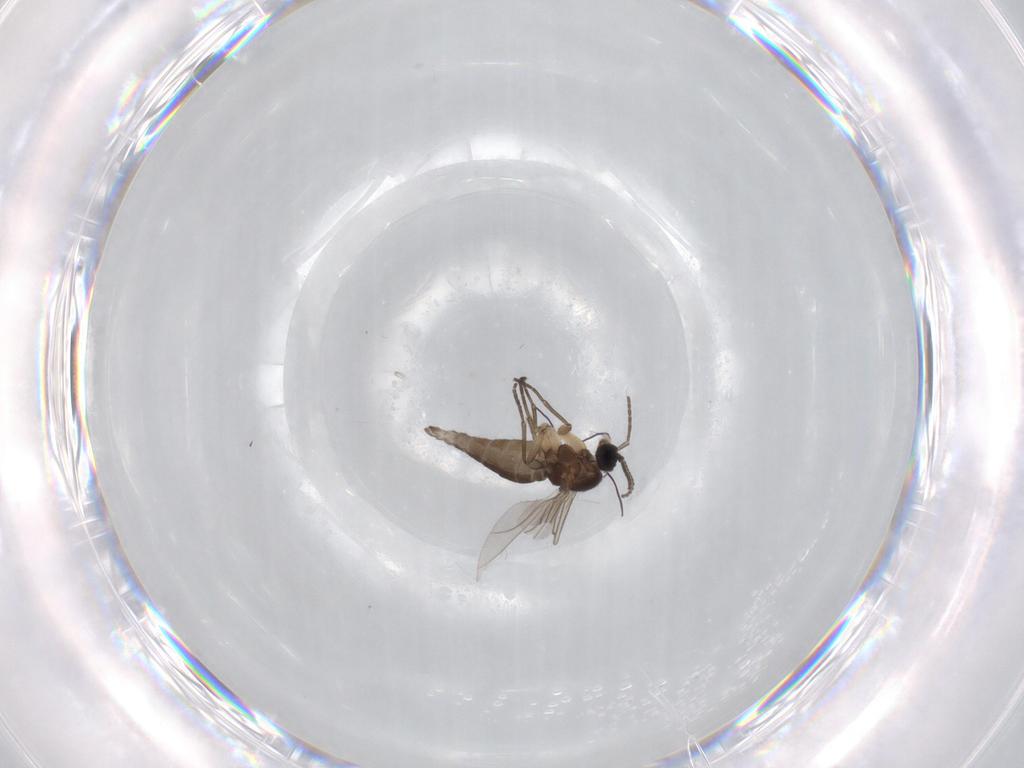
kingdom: Animalia
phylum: Arthropoda
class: Insecta
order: Diptera
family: Sciaridae
